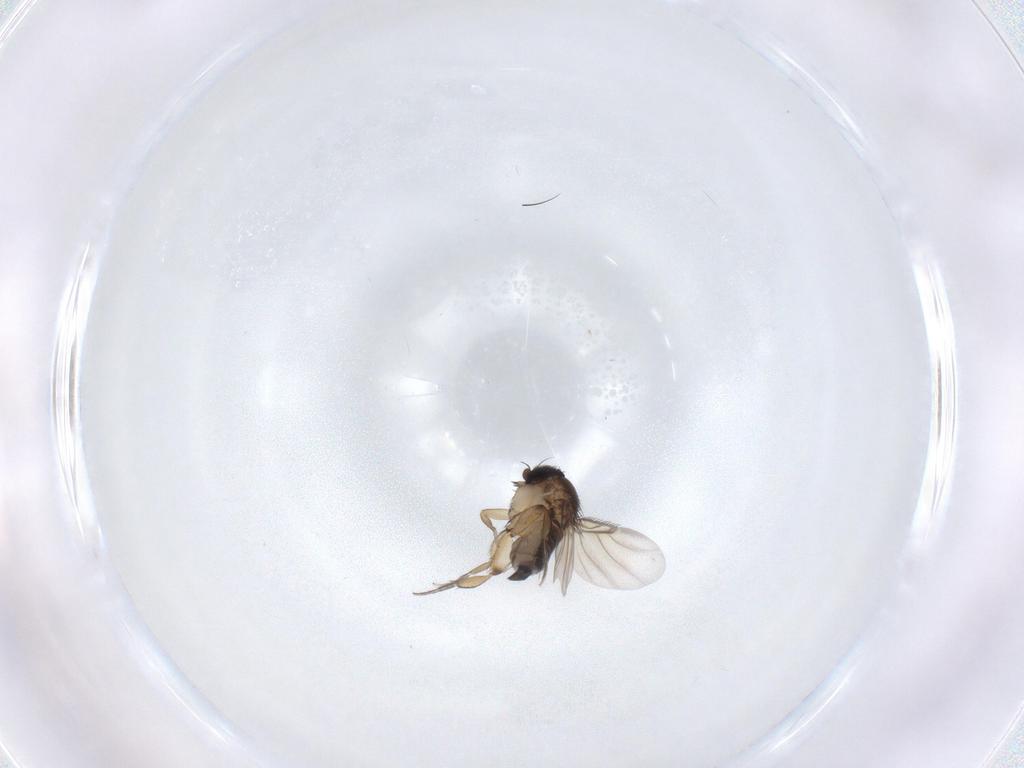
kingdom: Animalia
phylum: Arthropoda
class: Insecta
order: Diptera
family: Phoridae
